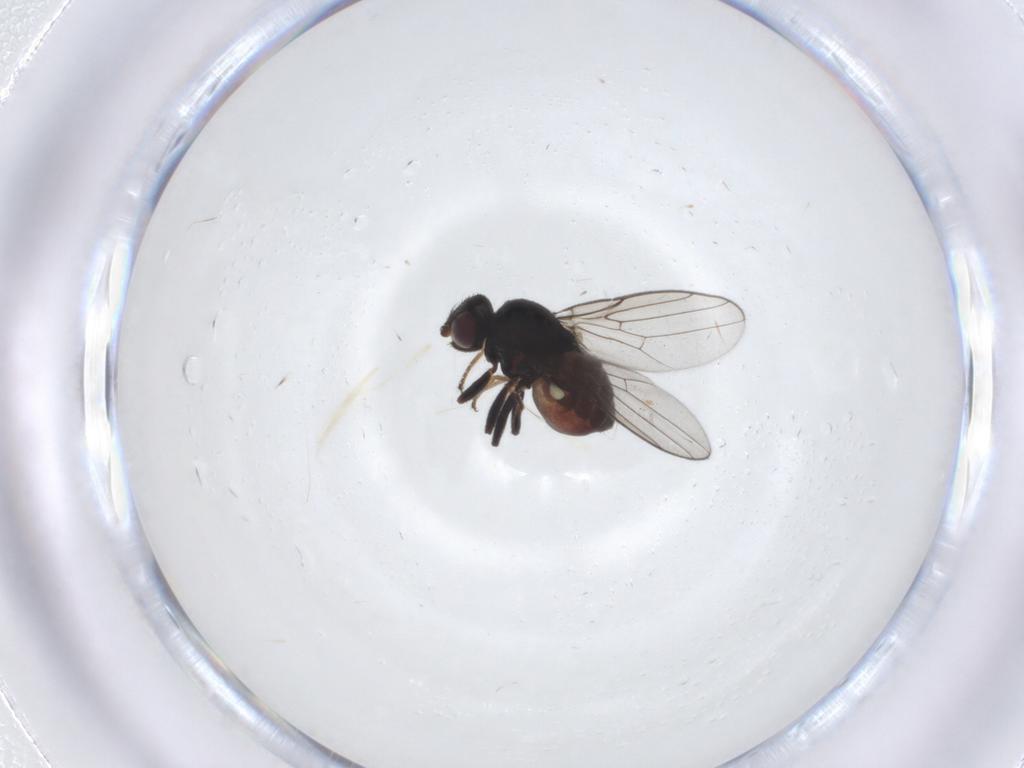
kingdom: Animalia
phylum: Arthropoda
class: Insecta
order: Diptera
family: Chloropidae
